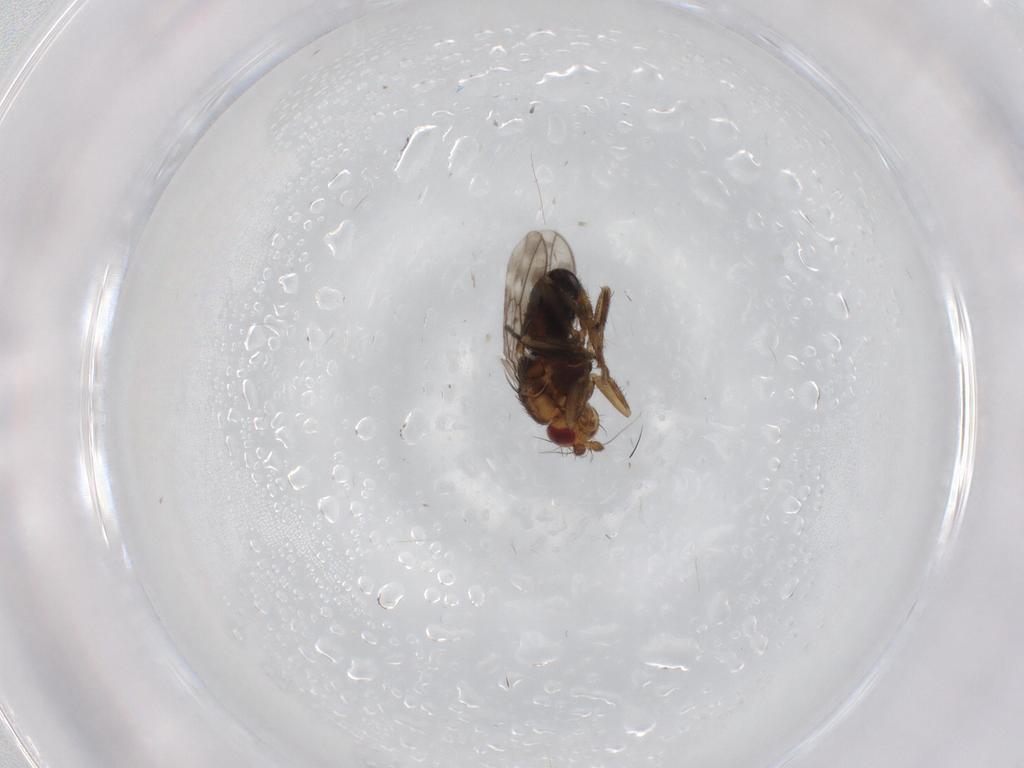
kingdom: Animalia
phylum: Arthropoda
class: Insecta
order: Diptera
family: Sphaeroceridae
